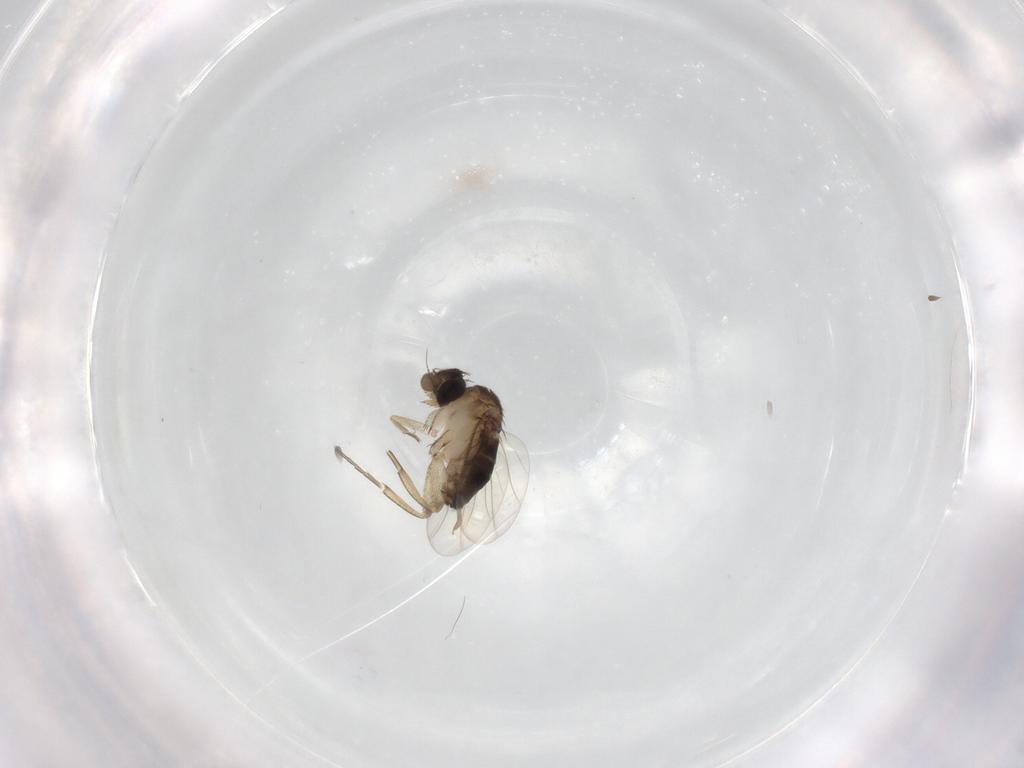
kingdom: Animalia
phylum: Arthropoda
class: Insecta
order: Diptera
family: Phoridae
